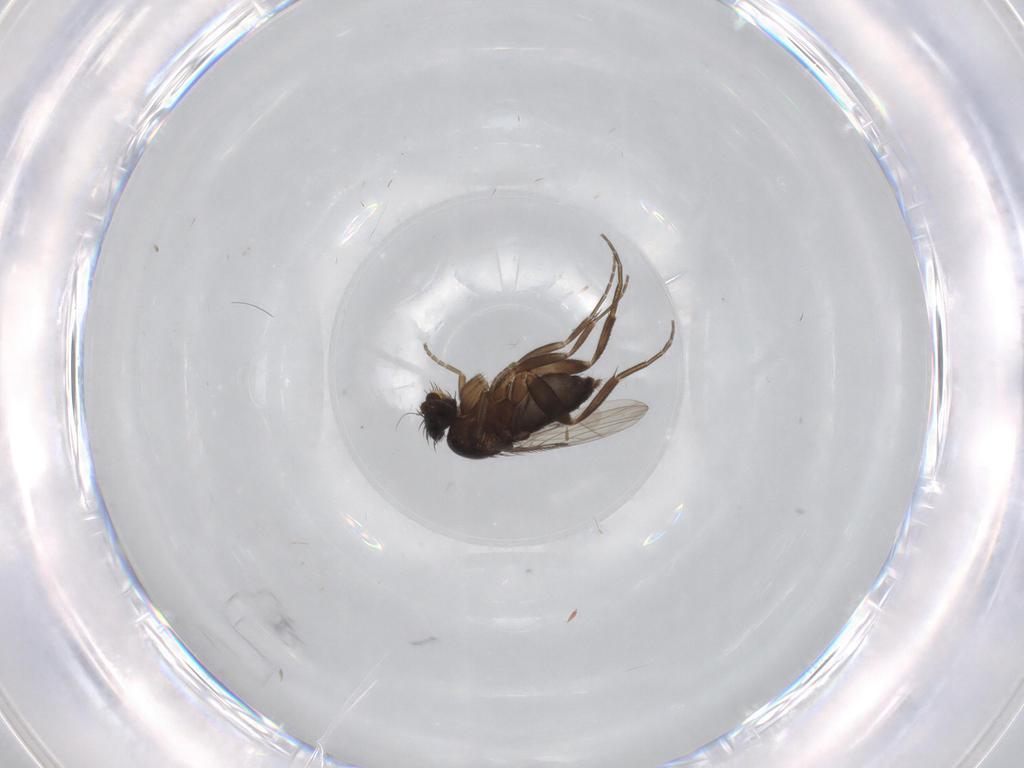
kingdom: Animalia
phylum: Arthropoda
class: Insecta
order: Diptera
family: Phoridae
